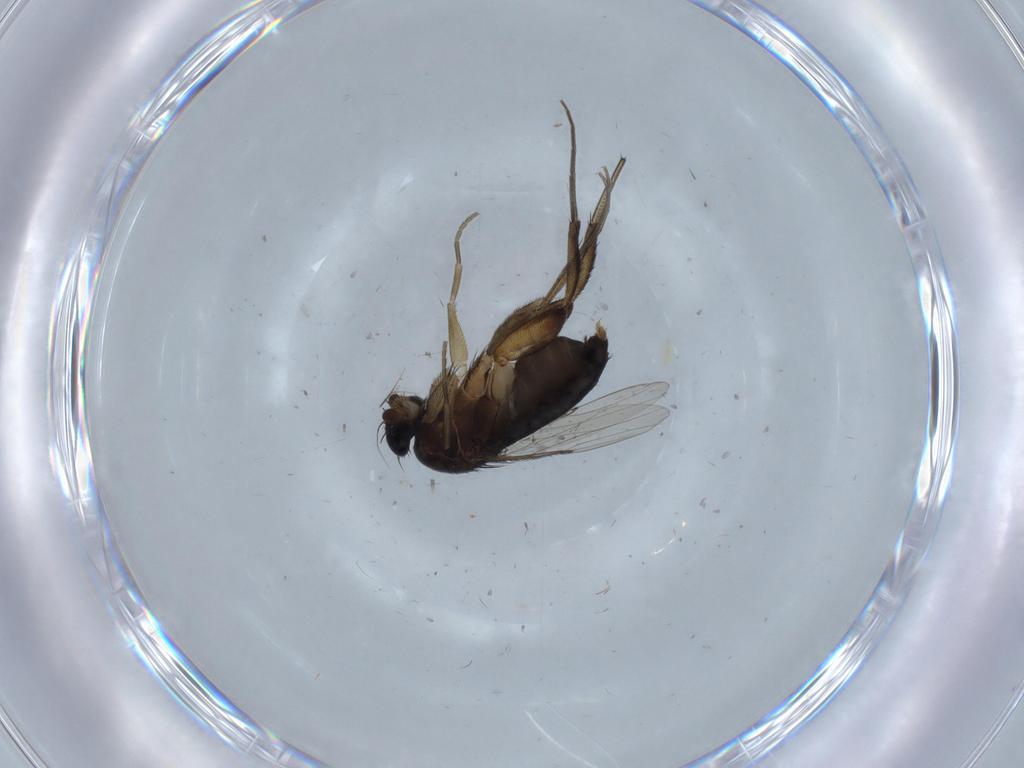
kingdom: Animalia
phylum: Arthropoda
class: Insecta
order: Diptera
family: Phoridae
